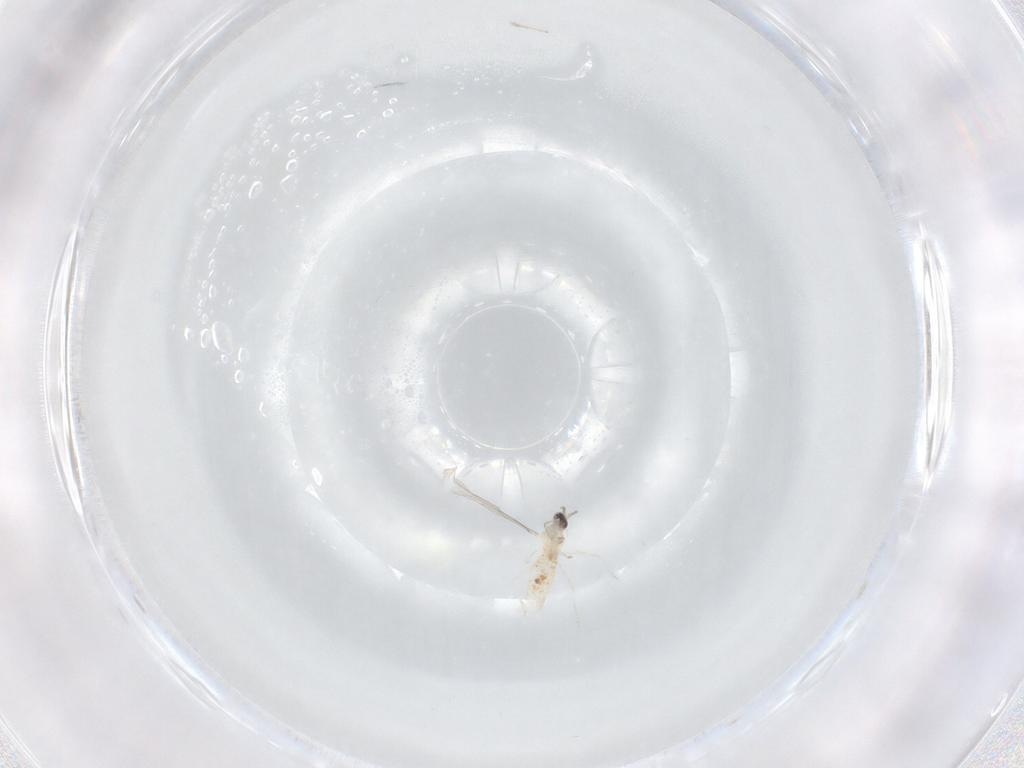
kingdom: Animalia
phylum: Arthropoda
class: Insecta
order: Diptera
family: Cecidomyiidae
